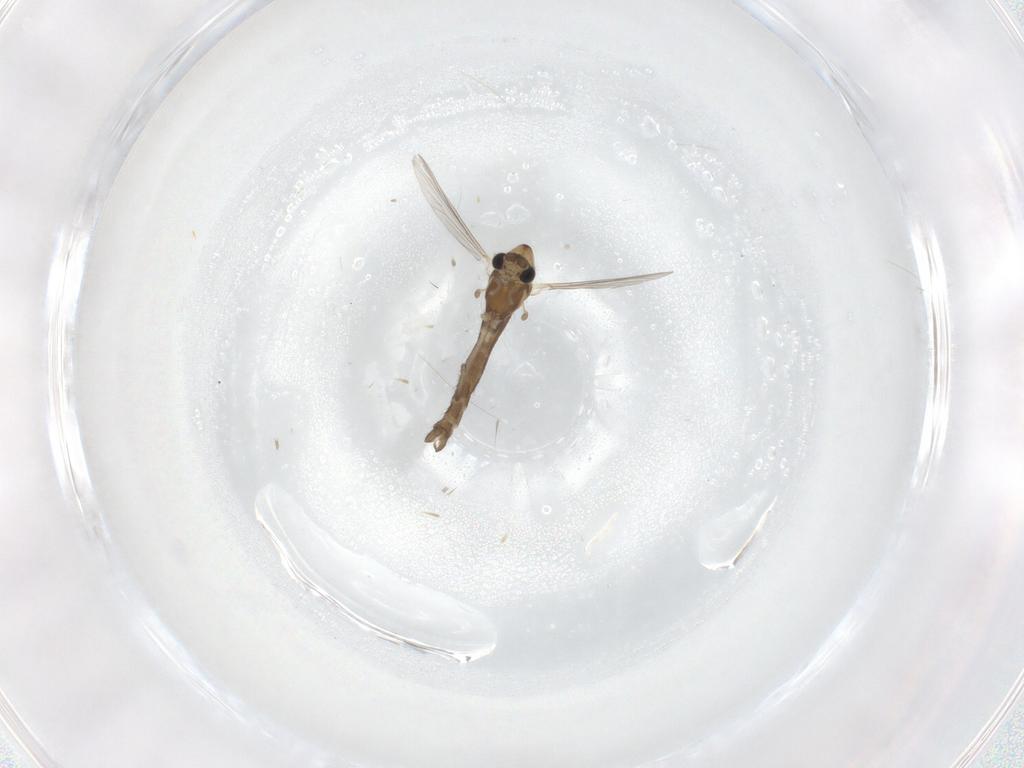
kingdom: Animalia
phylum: Arthropoda
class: Insecta
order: Diptera
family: Chironomidae
